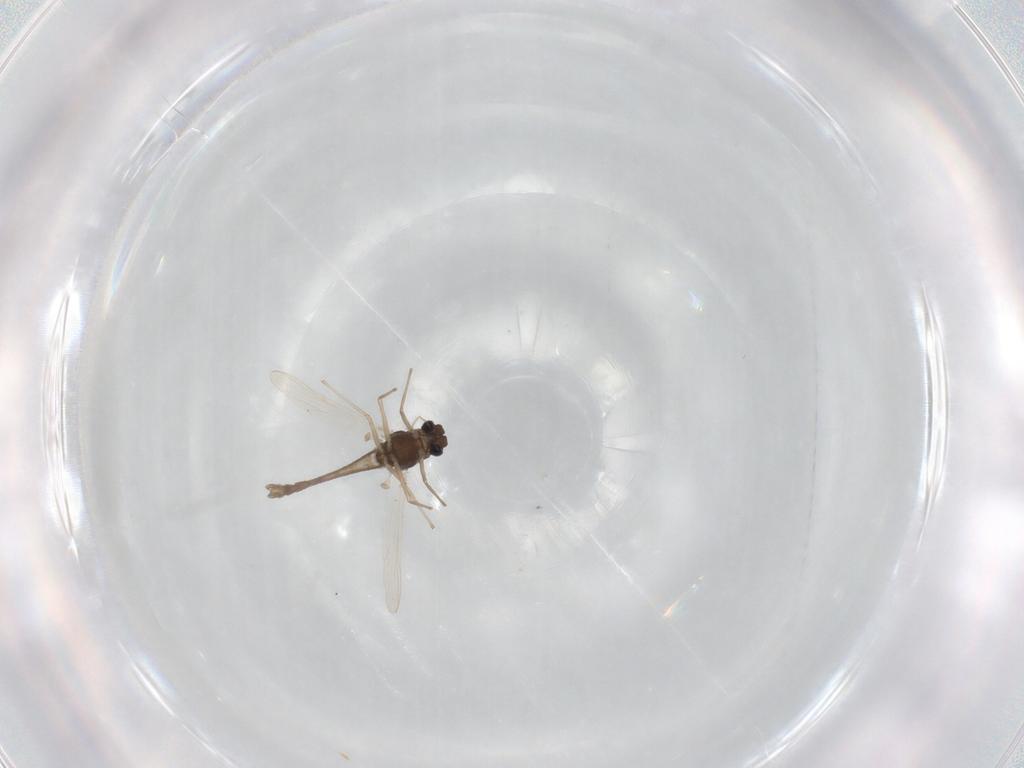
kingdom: Animalia
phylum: Arthropoda
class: Insecta
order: Diptera
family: Chironomidae
